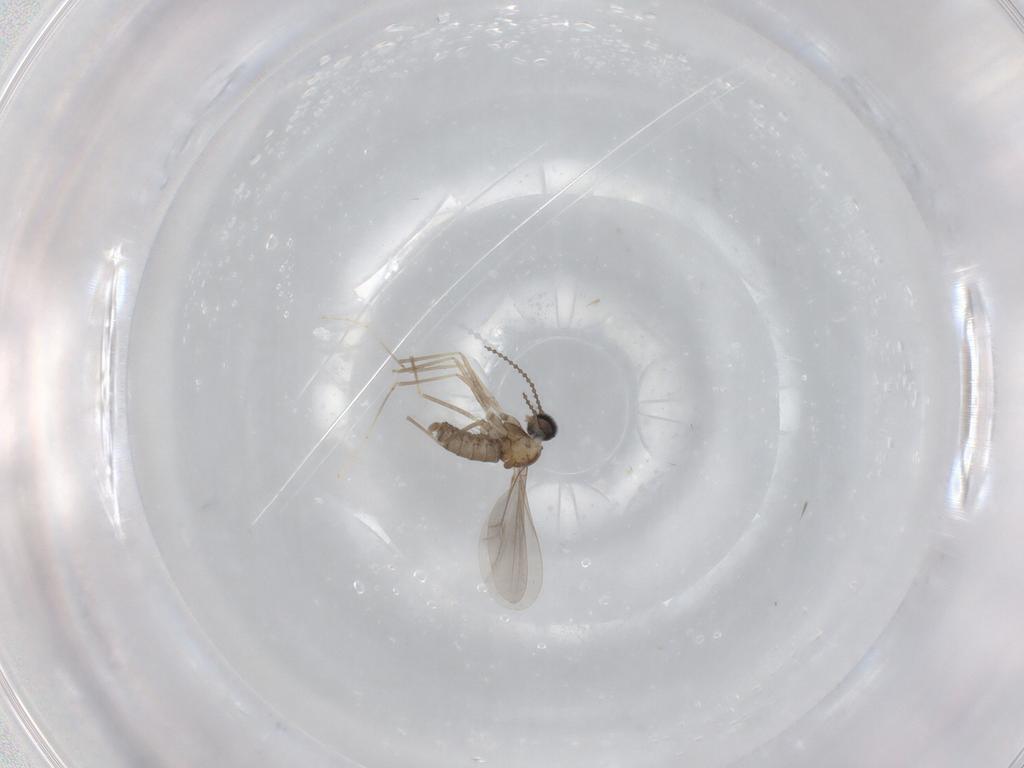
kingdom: Animalia
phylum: Arthropoda
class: Insecta
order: Diptera
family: Cecidomyiidae
